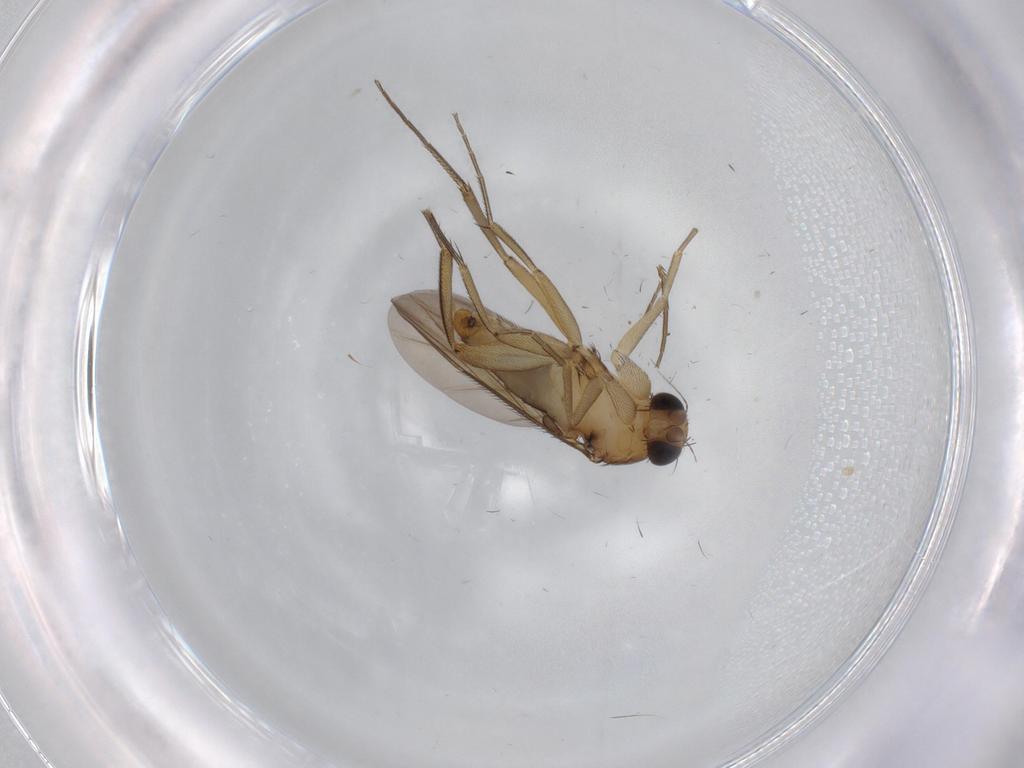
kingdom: Animalia
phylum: Arthropoda
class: Insecta
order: Diptera
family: Phoridae
